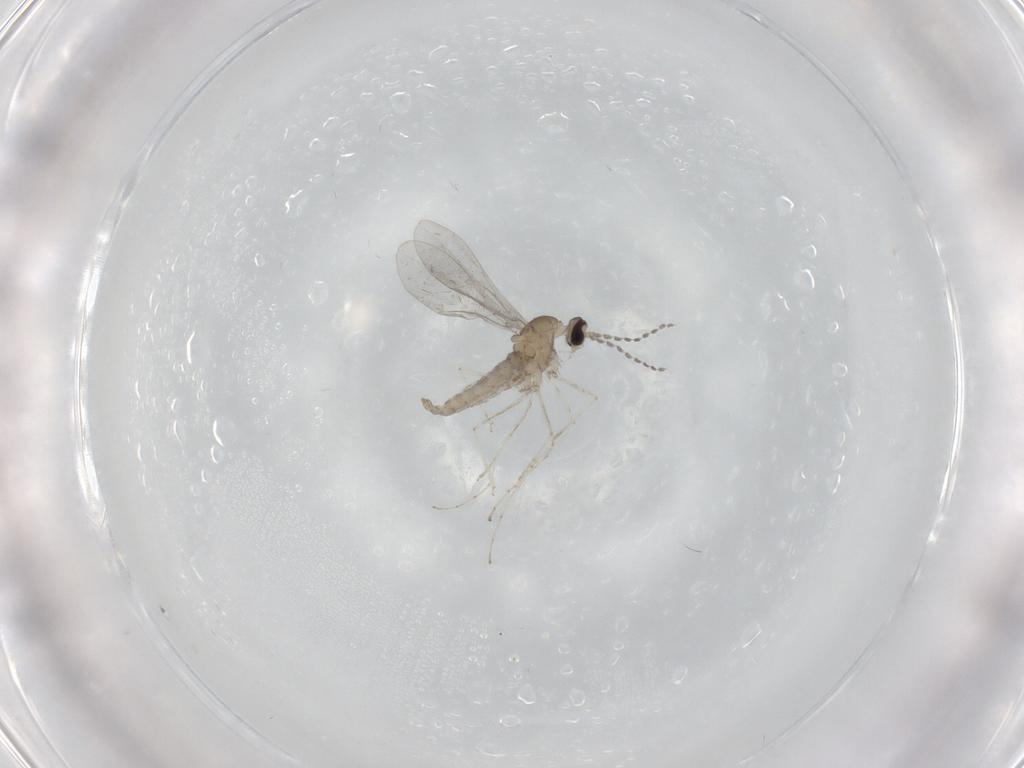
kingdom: Animalia
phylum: Arthropoda
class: Insecta
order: Diptera
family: Cecidomyiidae
